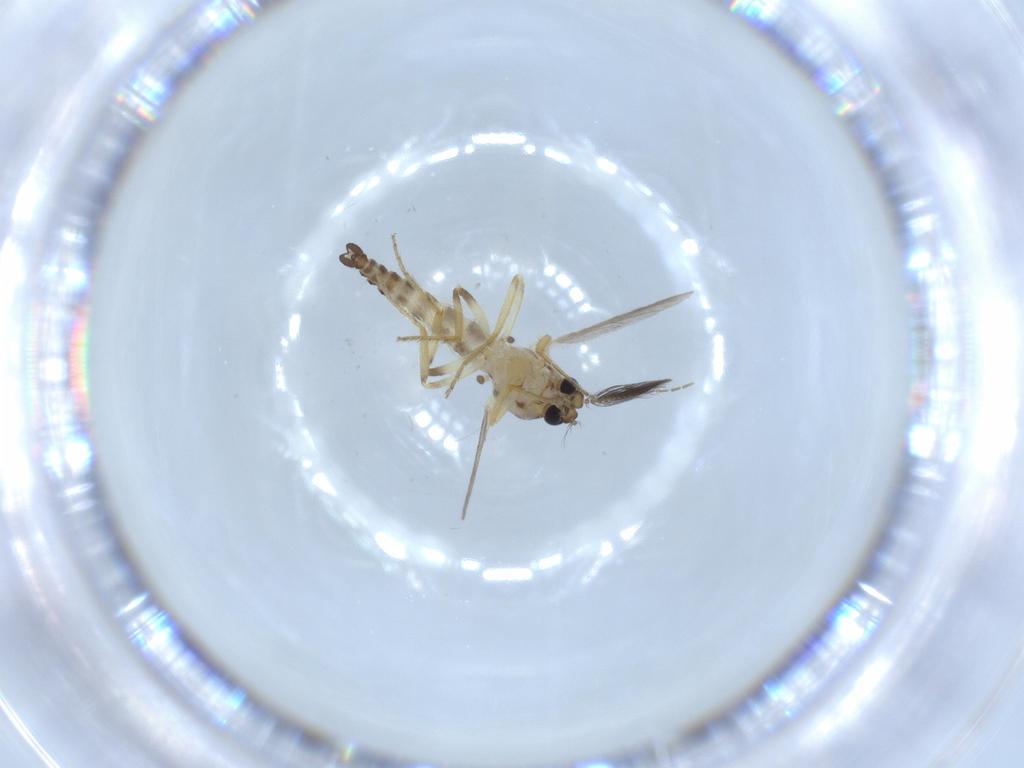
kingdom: Animalia
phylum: Arthropoda
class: Insecta
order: Diptera
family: Ceratopogonidae
